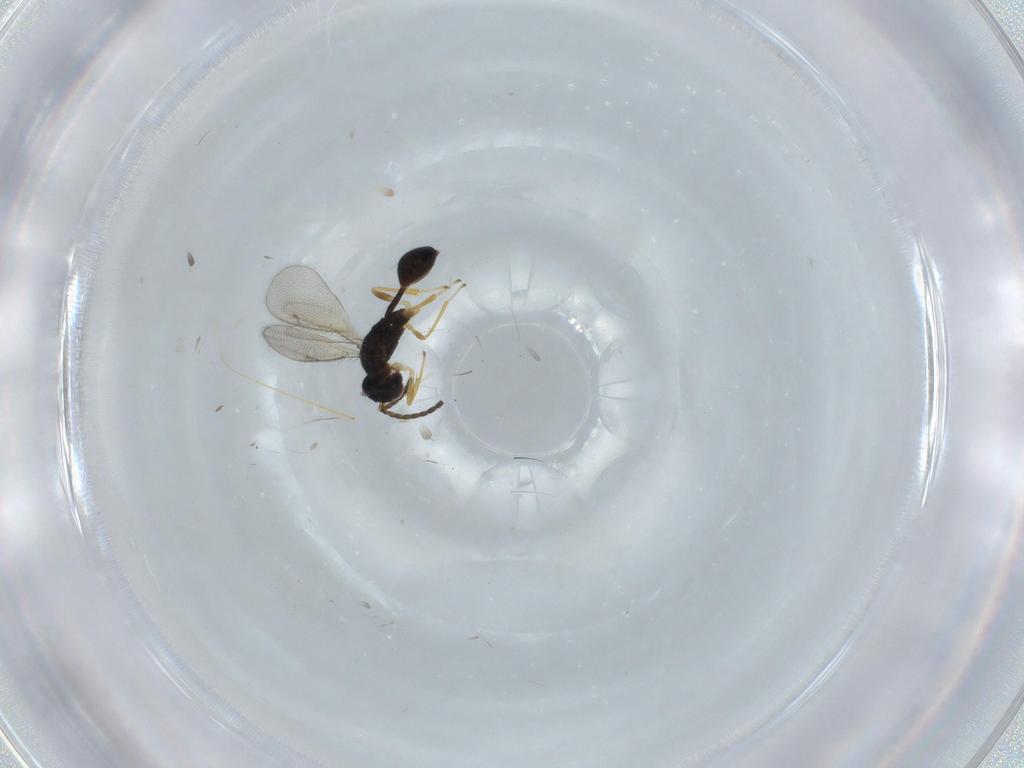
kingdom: Animalia
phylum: Arthropoda
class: Insecta
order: Hymenoptera
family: Diparidae
